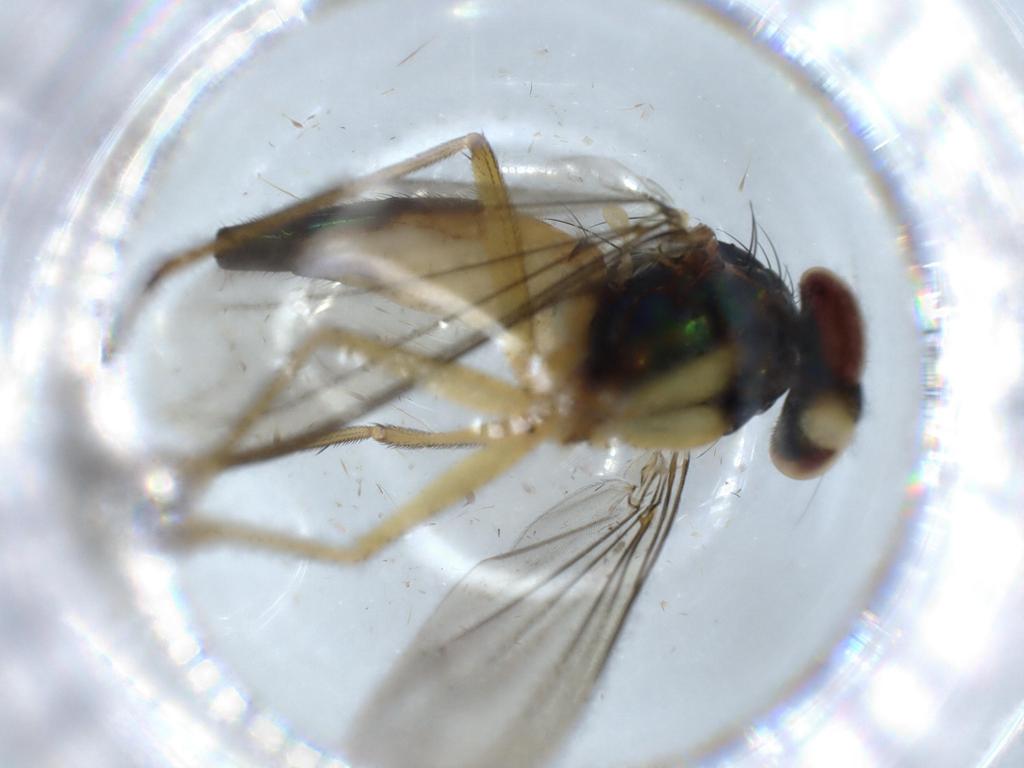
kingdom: Animalia
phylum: Arthropoda
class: Insecta
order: Diptera
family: Dolichopodidae
